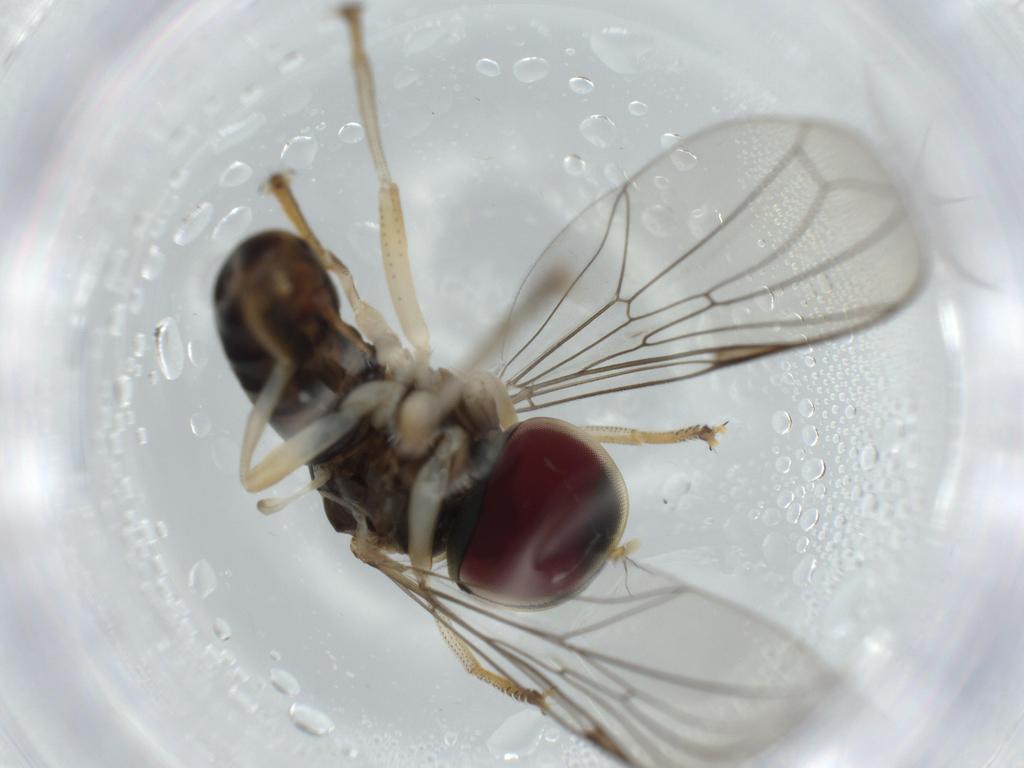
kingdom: Animalia
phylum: Arthropoda
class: Insecta
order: Diptera
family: Pipunculidae
